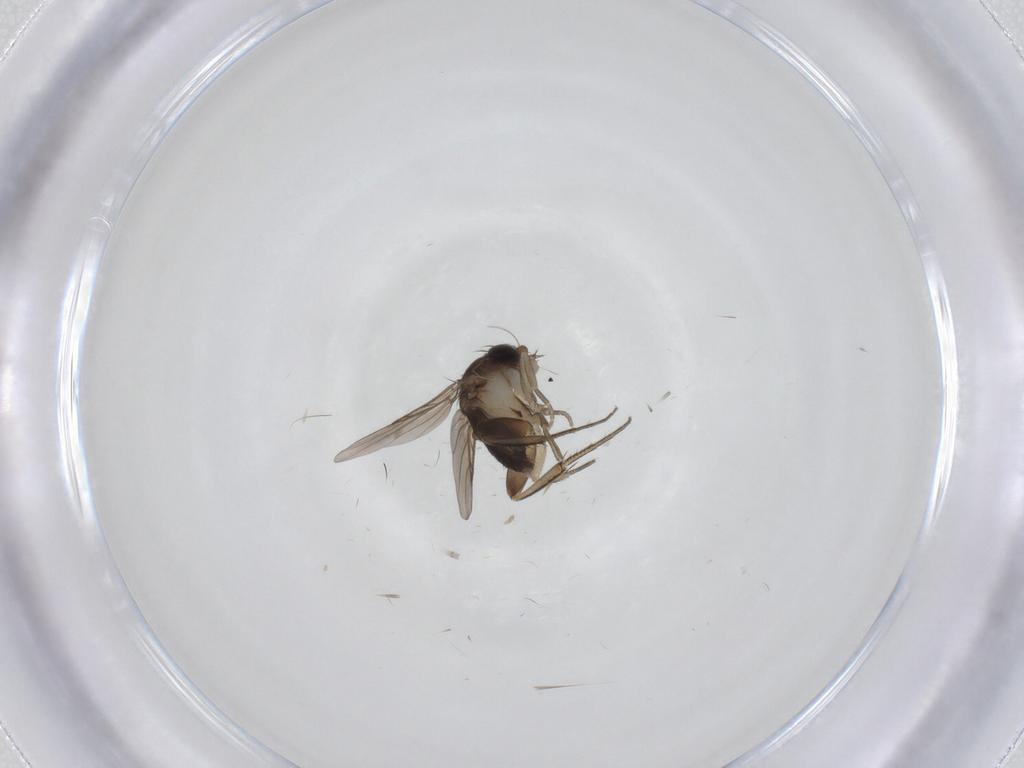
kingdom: Animalia
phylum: Arthropoda
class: Insecta
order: Diptera
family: Phoridae
